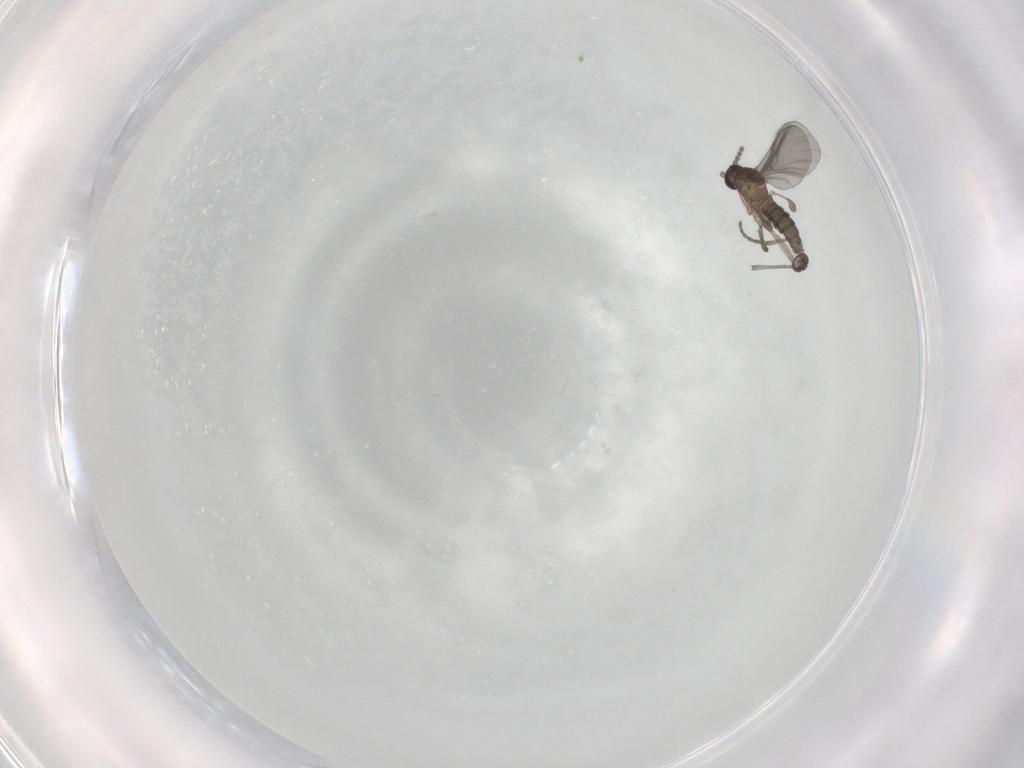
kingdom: Animalia
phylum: Arthropoda
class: Insecta
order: Diptera
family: Sciaridae
